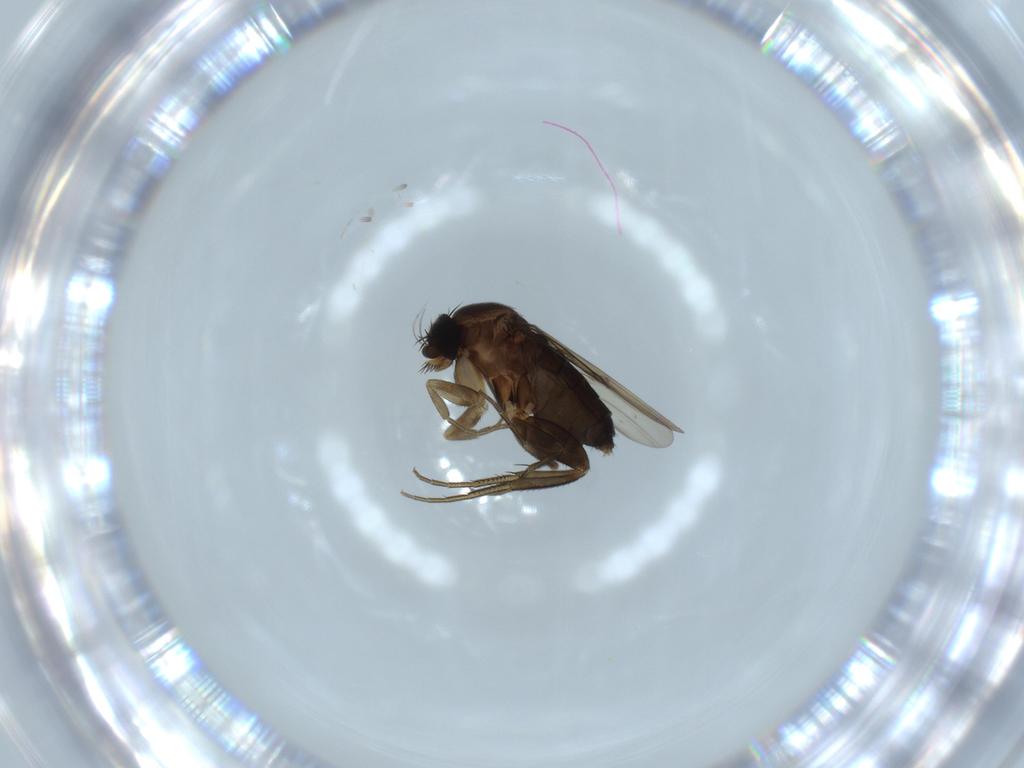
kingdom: Animalia
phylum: Arthropoda
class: Insecta
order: Diptera
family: Phoridae
